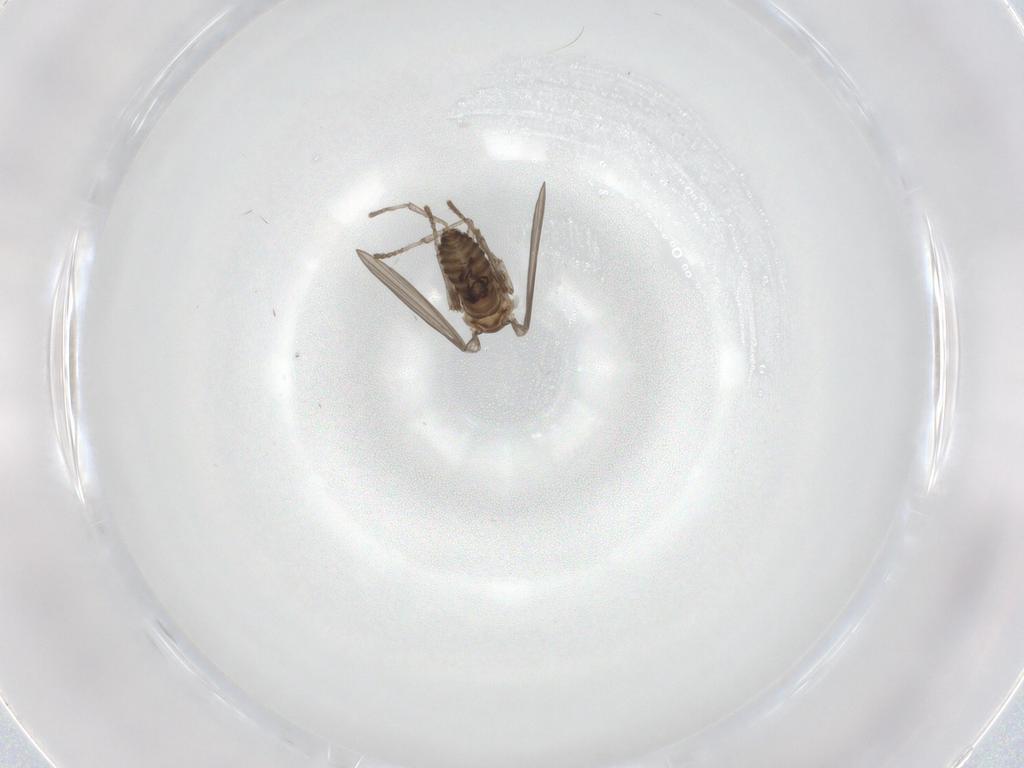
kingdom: Animalia
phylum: Arthropoda
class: Insecta
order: Diptera
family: Psychodidae
